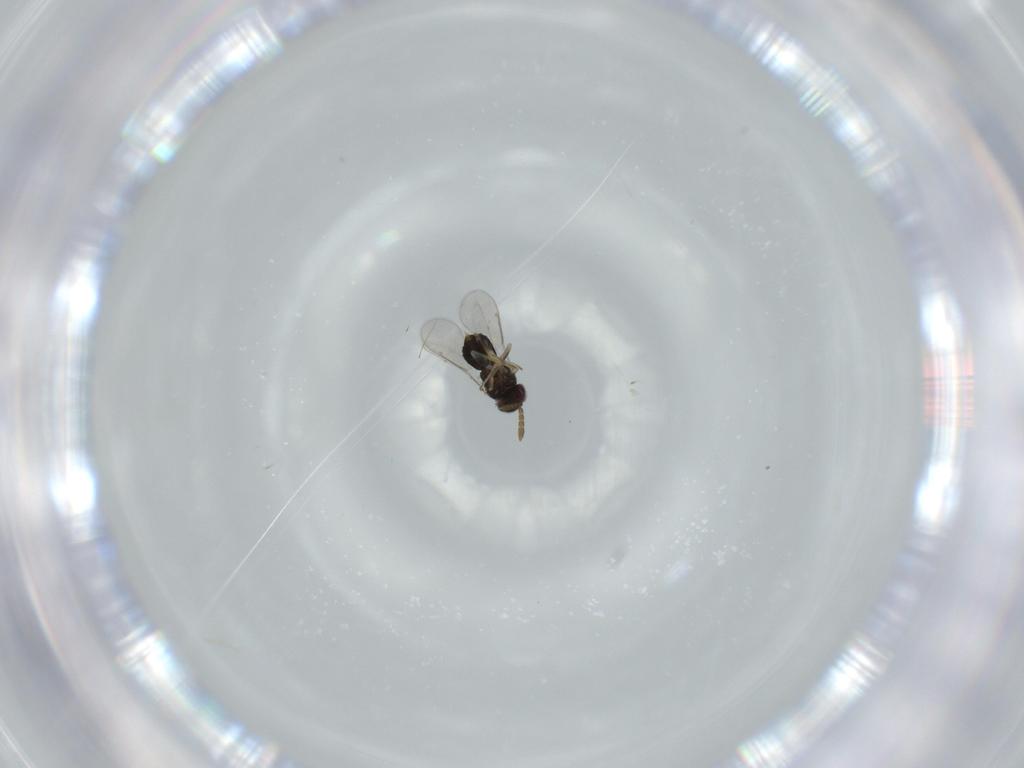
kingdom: Animalia
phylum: Arthropoda
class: Insecta
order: Hymenoptera
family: Aphelinidae
